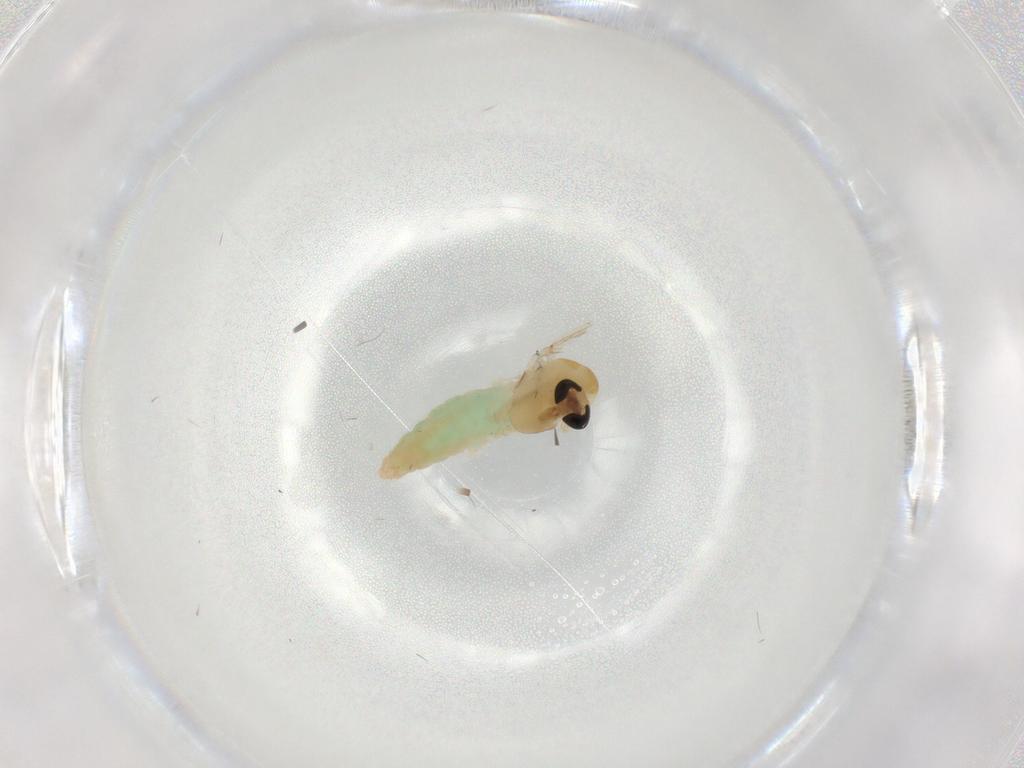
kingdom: Animalia
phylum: Arthropoda
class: Insecta
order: Diptera
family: Chironomidae
